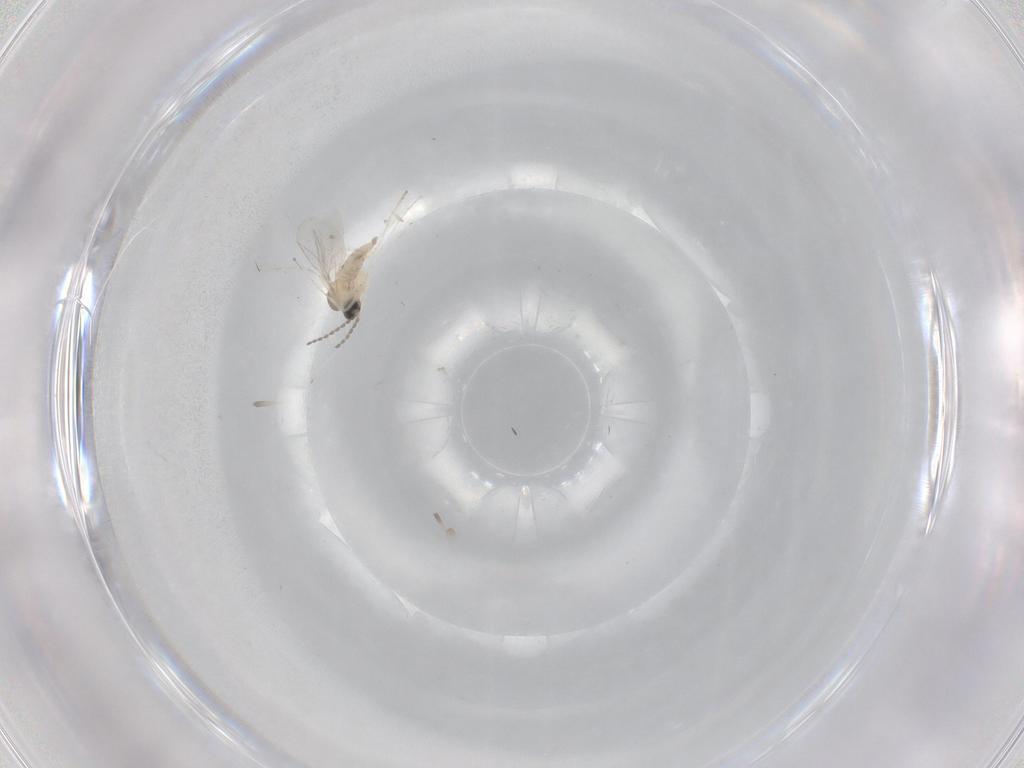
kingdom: Animalia
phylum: Arthropoda
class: Insecta
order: Diptera
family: Cecidomyiidae
